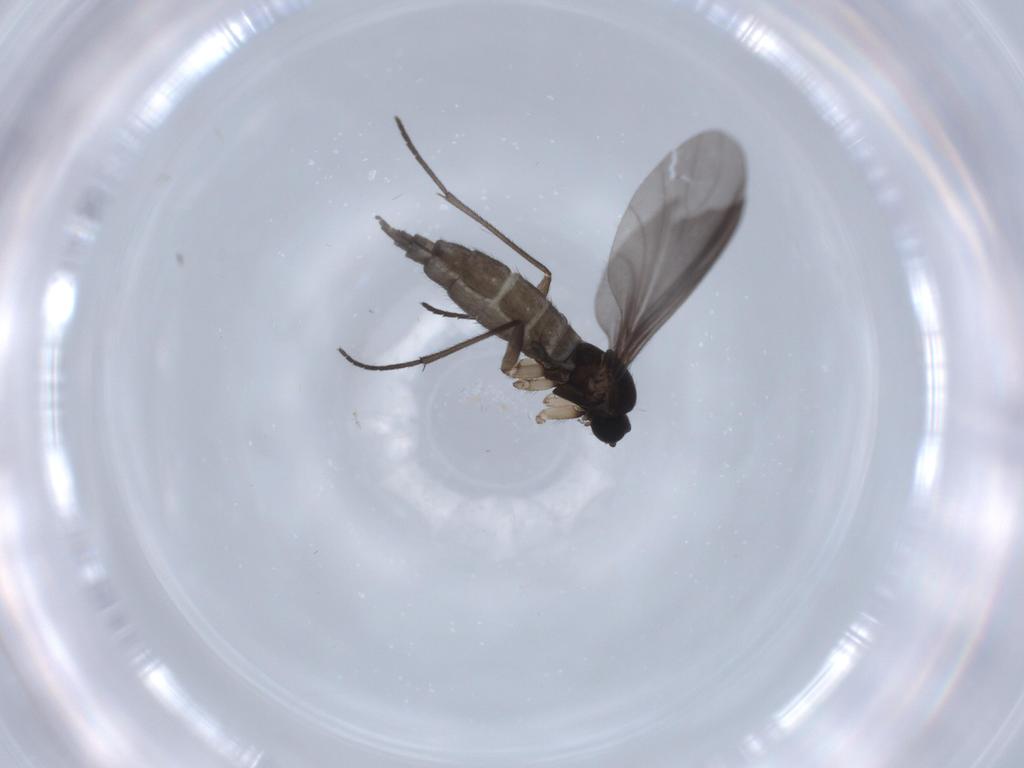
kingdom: Animalia
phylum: Arthropoda
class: Insecta
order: Diptera
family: Sciaridae
